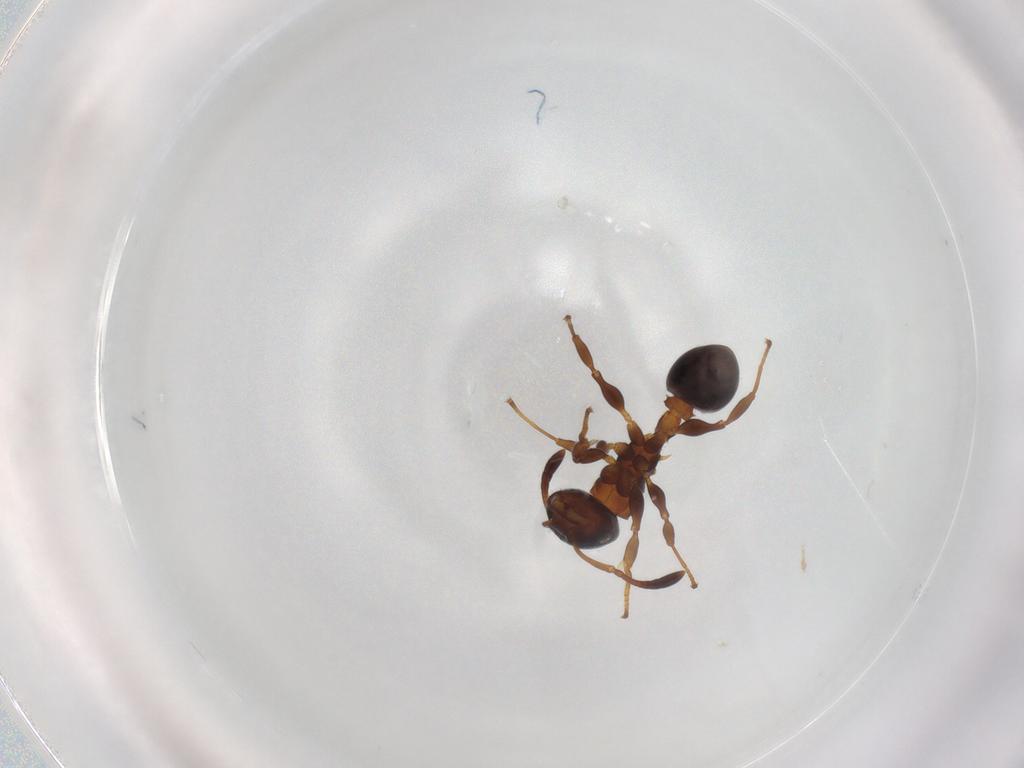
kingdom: Animalia
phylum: Arthropoda
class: Insecta
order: Hymenoptera
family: Formicidae
